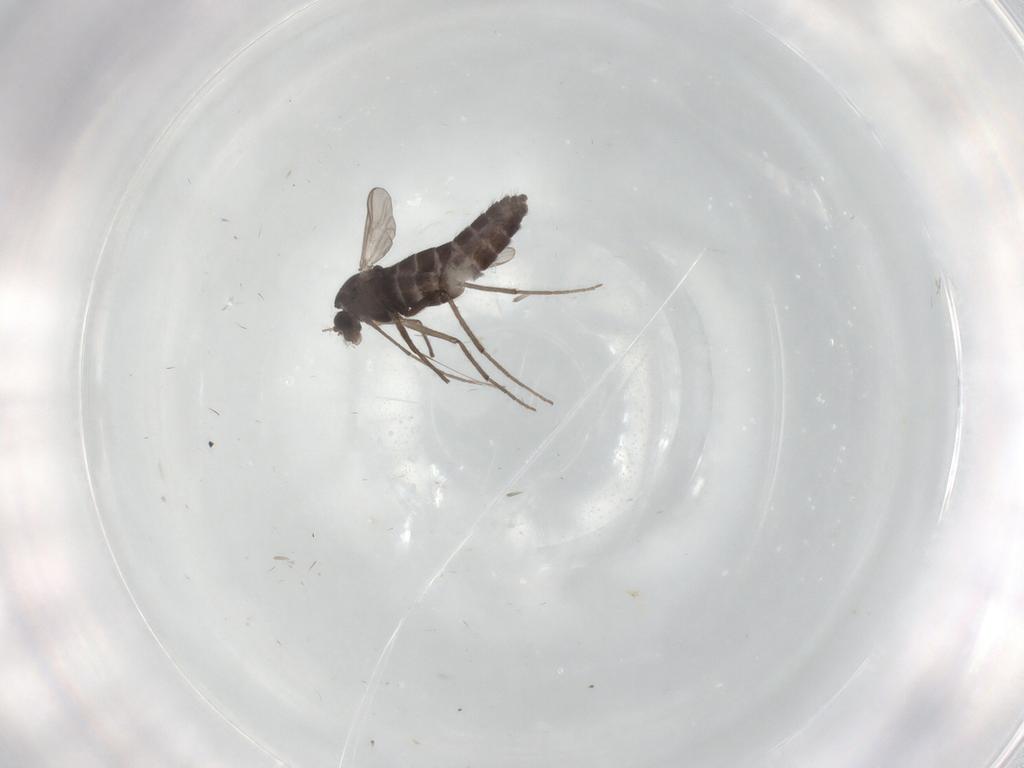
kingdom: Animalia
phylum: Arthropoda
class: Insecta
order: Diptera
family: Chironomidae
